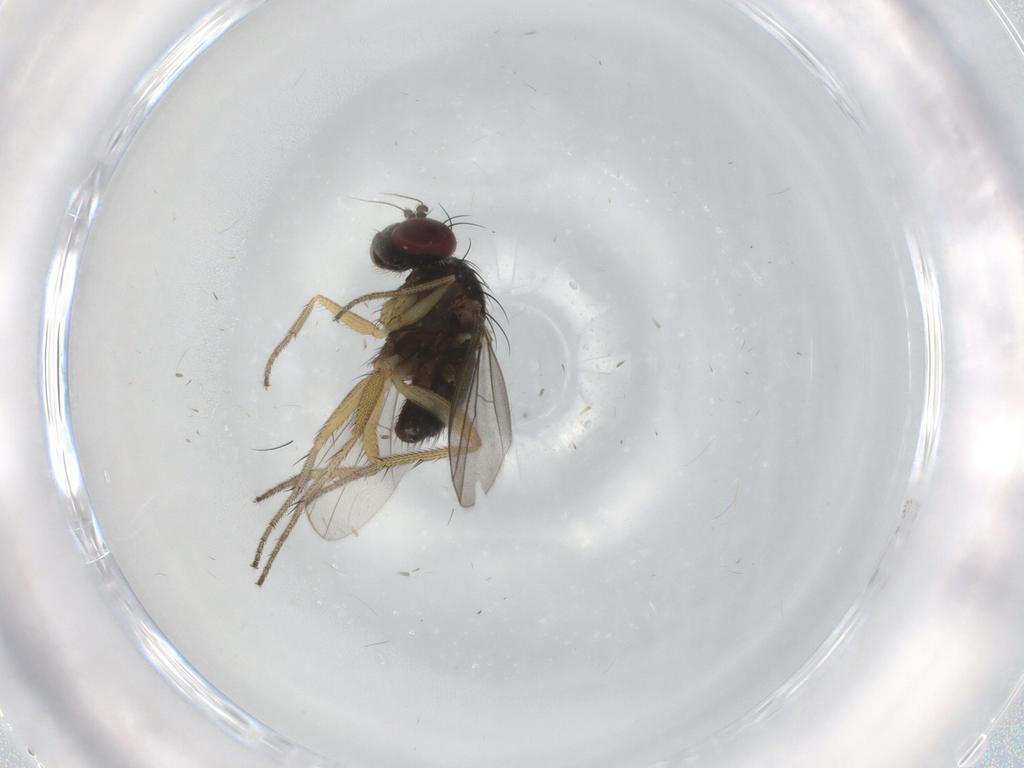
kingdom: Animalia
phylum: Arthropoda
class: Insecta
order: Diptera
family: Dolichopodidae
